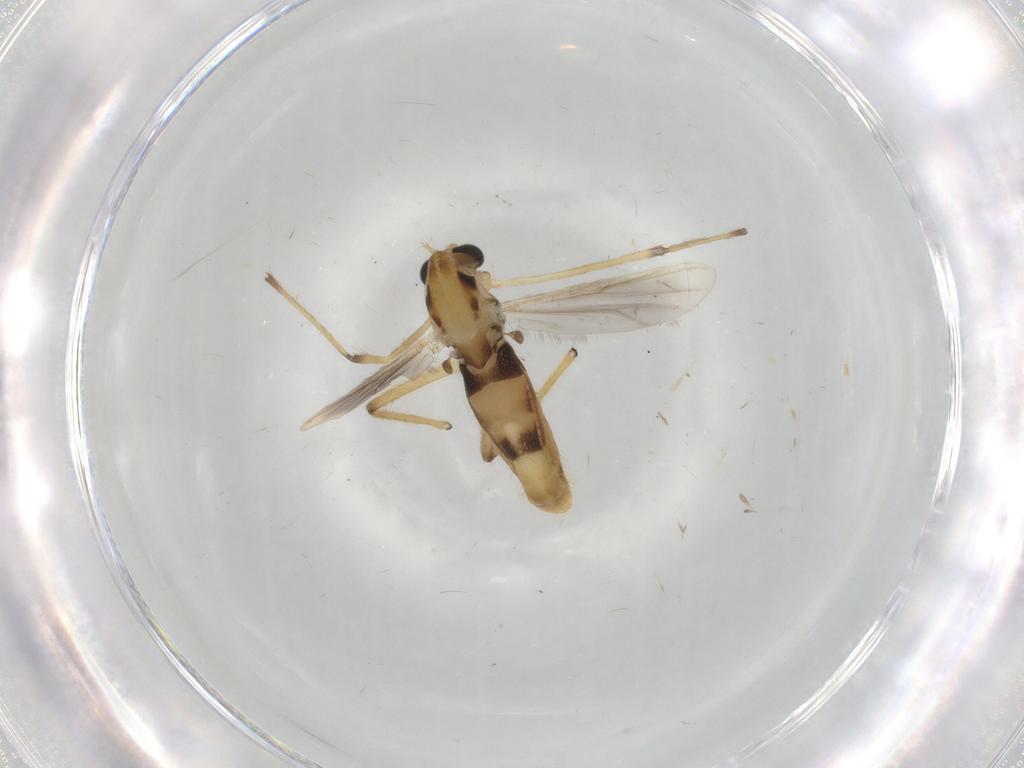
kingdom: Animalia
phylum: Arthropoda
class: Insecta
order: Diptera
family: Chironomidae
